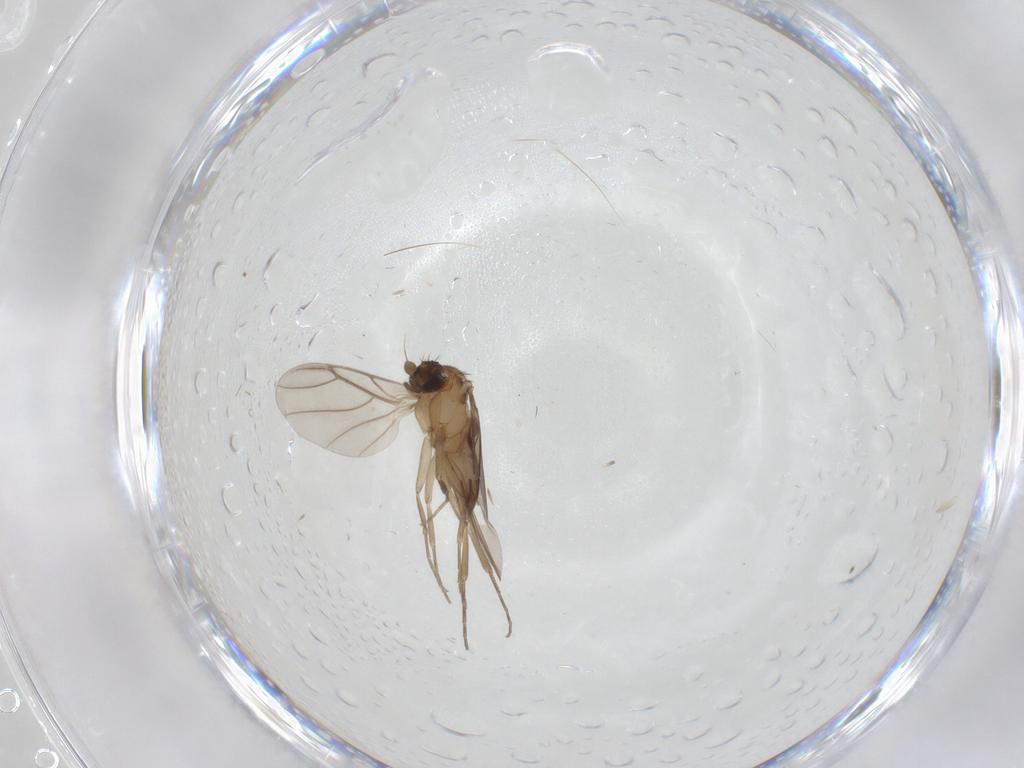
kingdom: Animalia
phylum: Arthropoda
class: Insecta
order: Diptera
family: Phoridae
